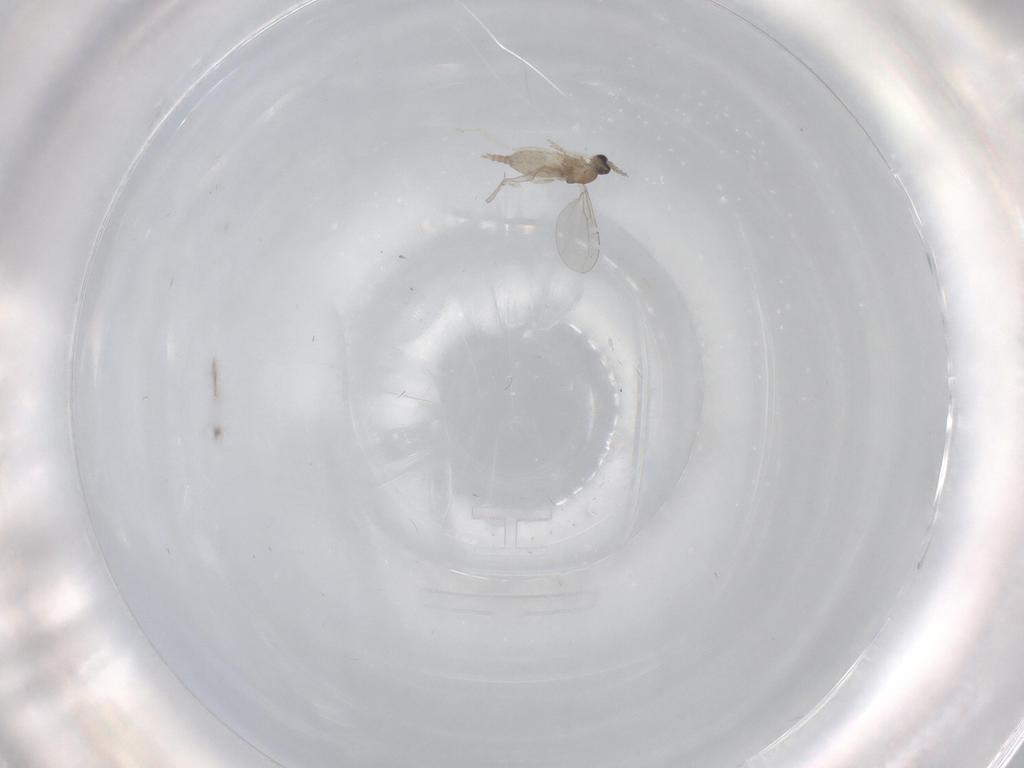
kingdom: Animalia
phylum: Arthropoda
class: Insecta
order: Diptera
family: Cecidomyiidae
